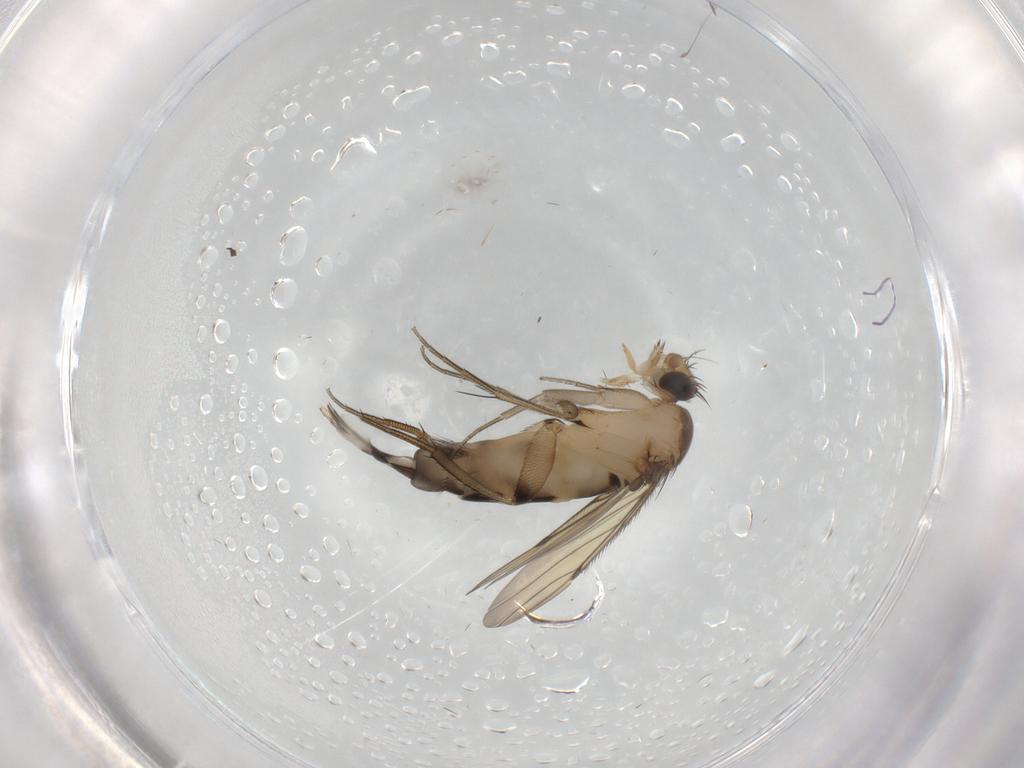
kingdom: Animalia
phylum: Arthropoda
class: Insecta
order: Diptera
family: Chironomidae
